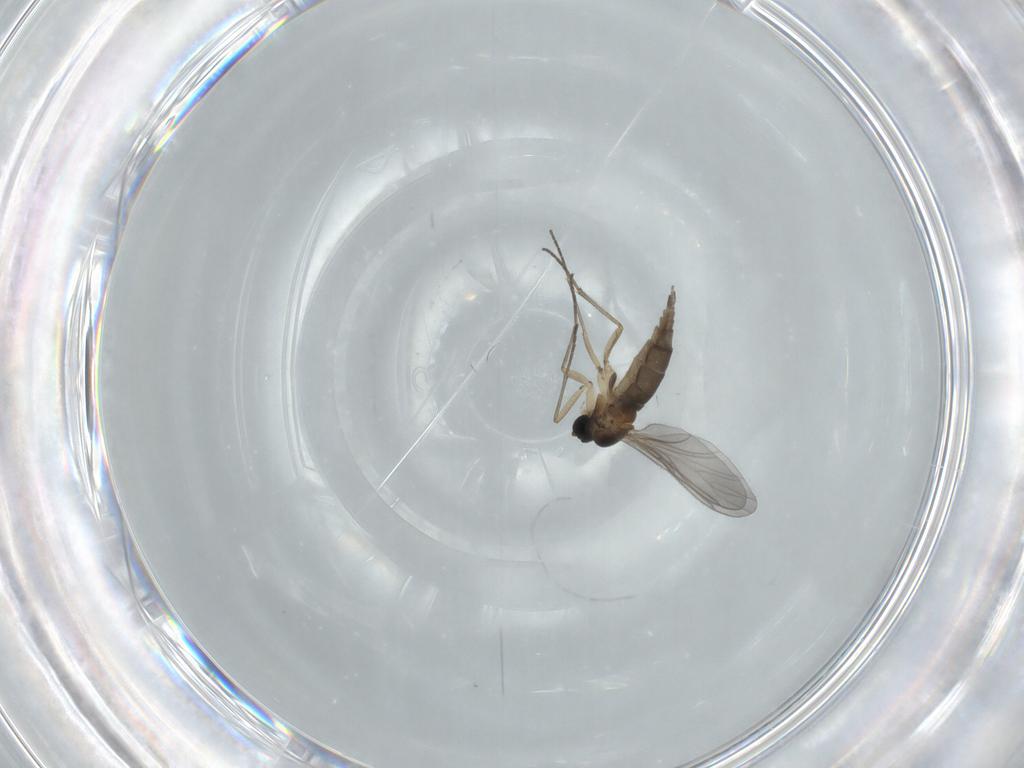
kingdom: Animalia
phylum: Arthropoda
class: Insecta
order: Diptera
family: Sciaridae
